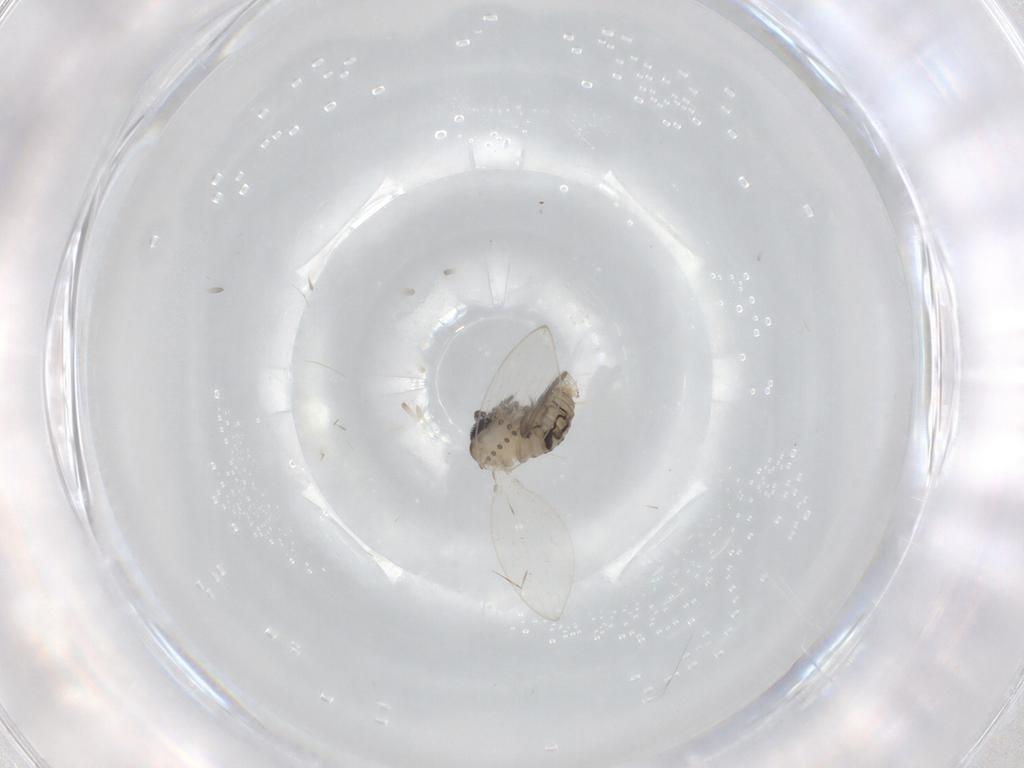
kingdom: Animalia
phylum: Arthropoda
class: Insecta
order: Diptera
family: Psychodidae
